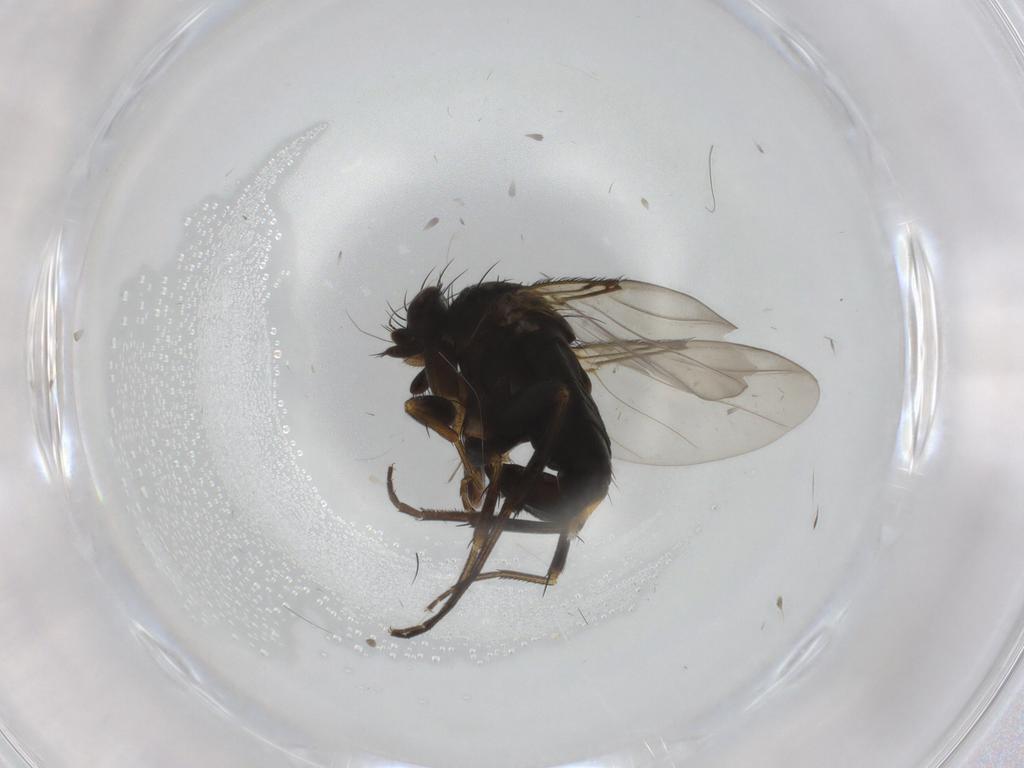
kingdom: Animalia
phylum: Arthropoda
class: Insecta
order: Diptera
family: Phoridae
